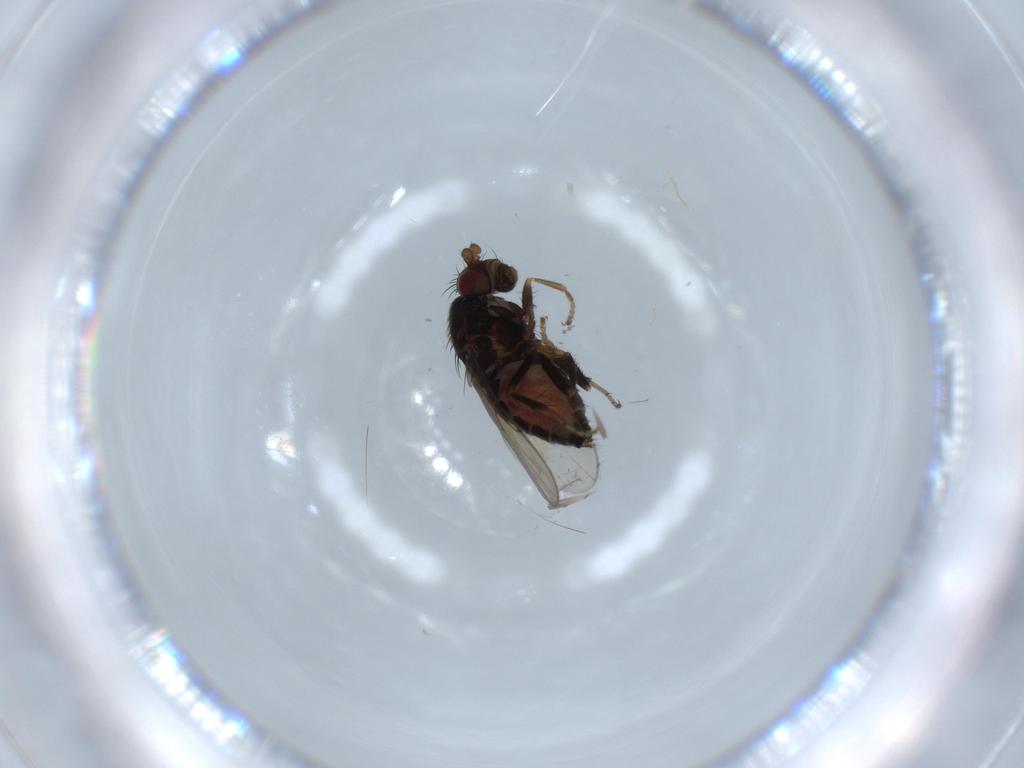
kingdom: Animalia
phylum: Arthropoda
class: Insecta
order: Diptera
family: Sphaeroceridae
